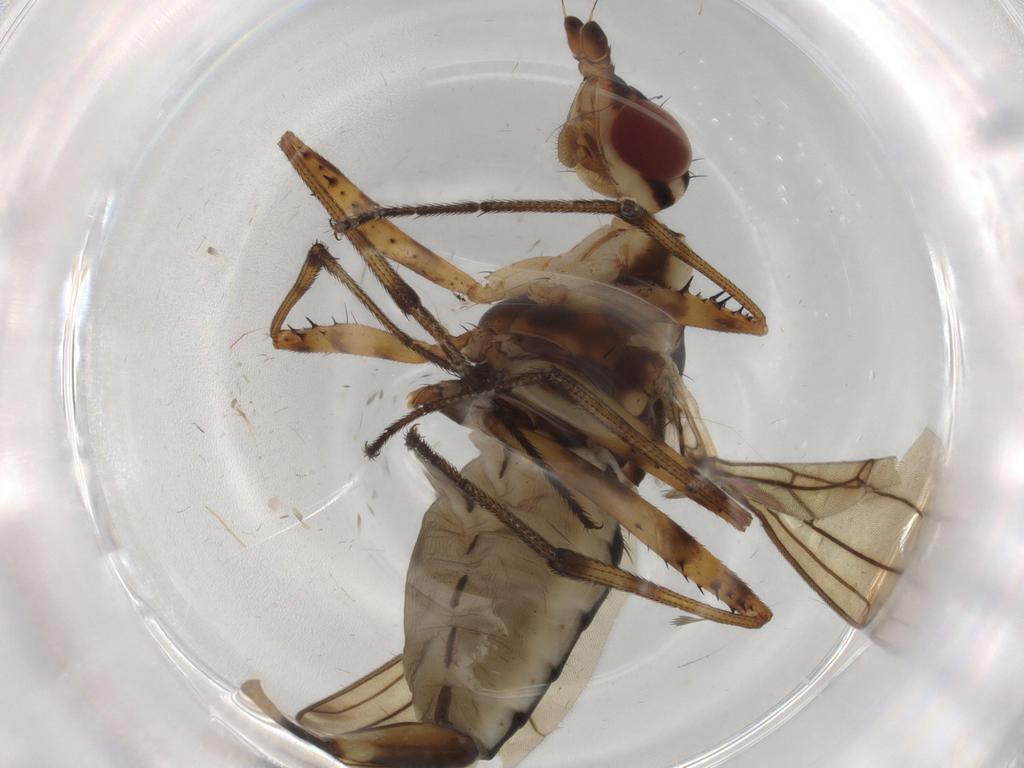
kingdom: Animalia
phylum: Arthropoda
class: Insecta
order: Diptera
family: Neriidae
